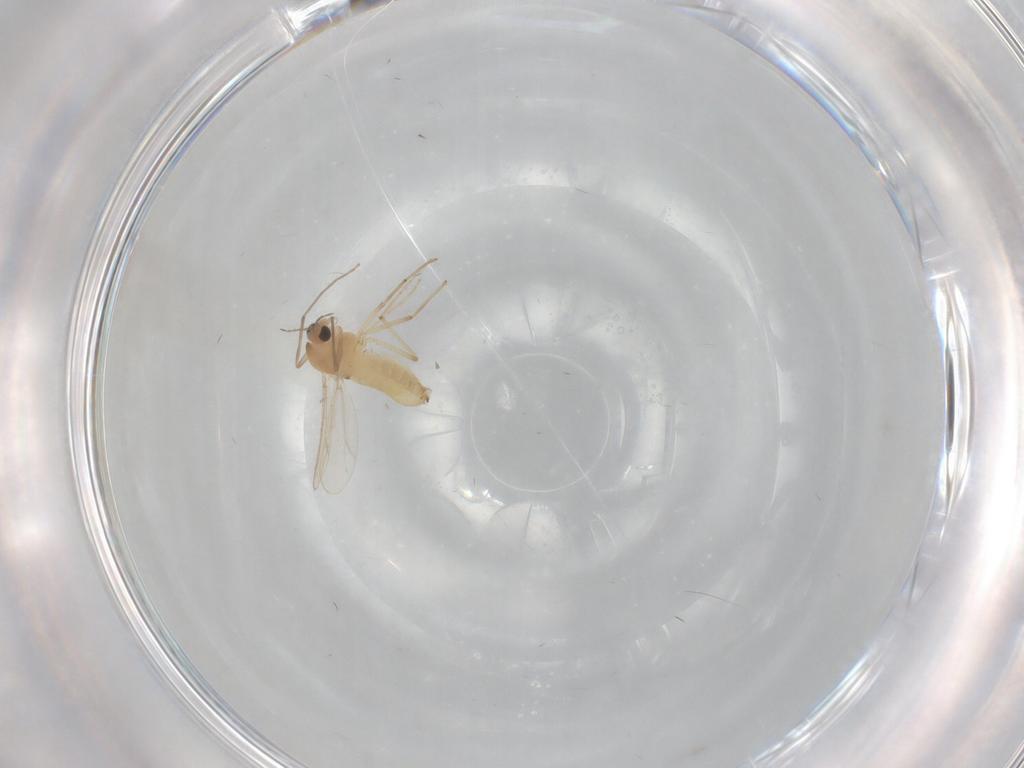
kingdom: Animalia
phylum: Arthropoda
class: Insecta
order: Diptera
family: Chironomidae
